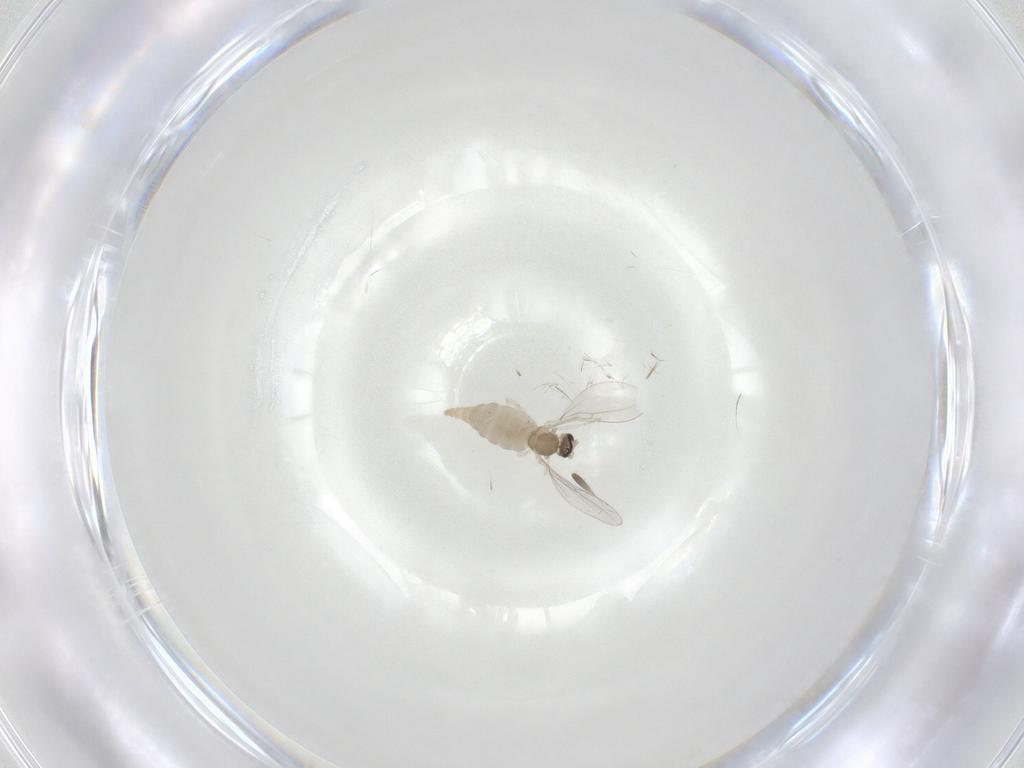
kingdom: Animalia
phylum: Arthropoda
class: Insecta
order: Diptera
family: Cecidomyiidae
